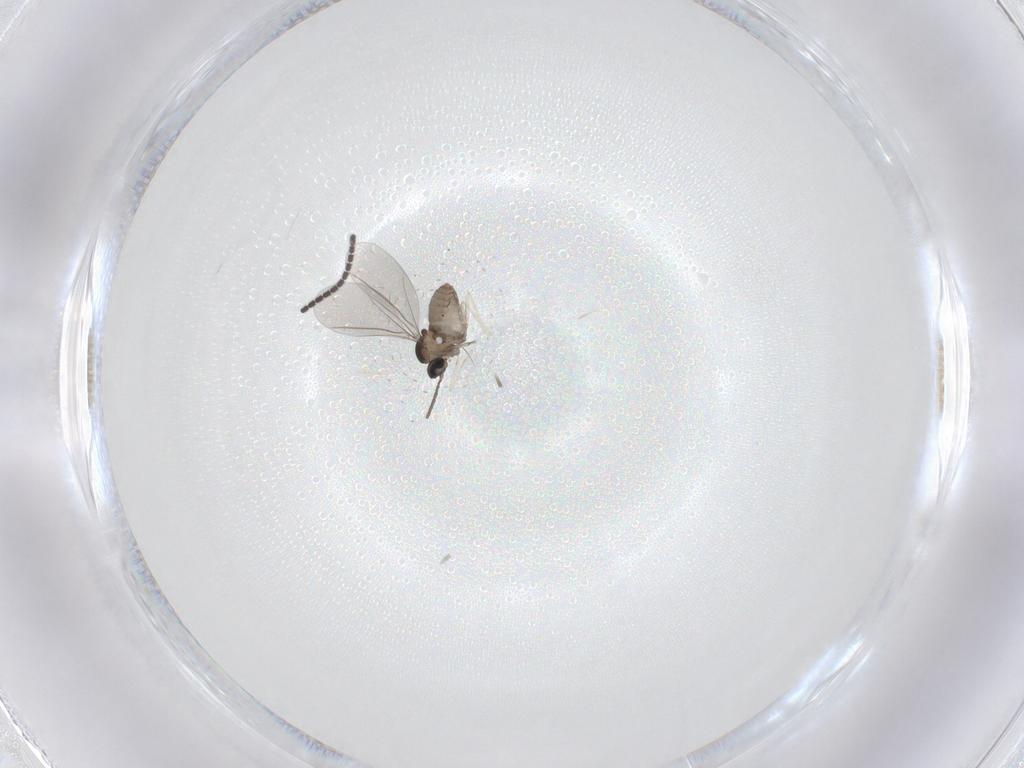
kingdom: Animalia
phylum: Arthropoda
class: Insecta
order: Diptera
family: Cecidomyiidae
